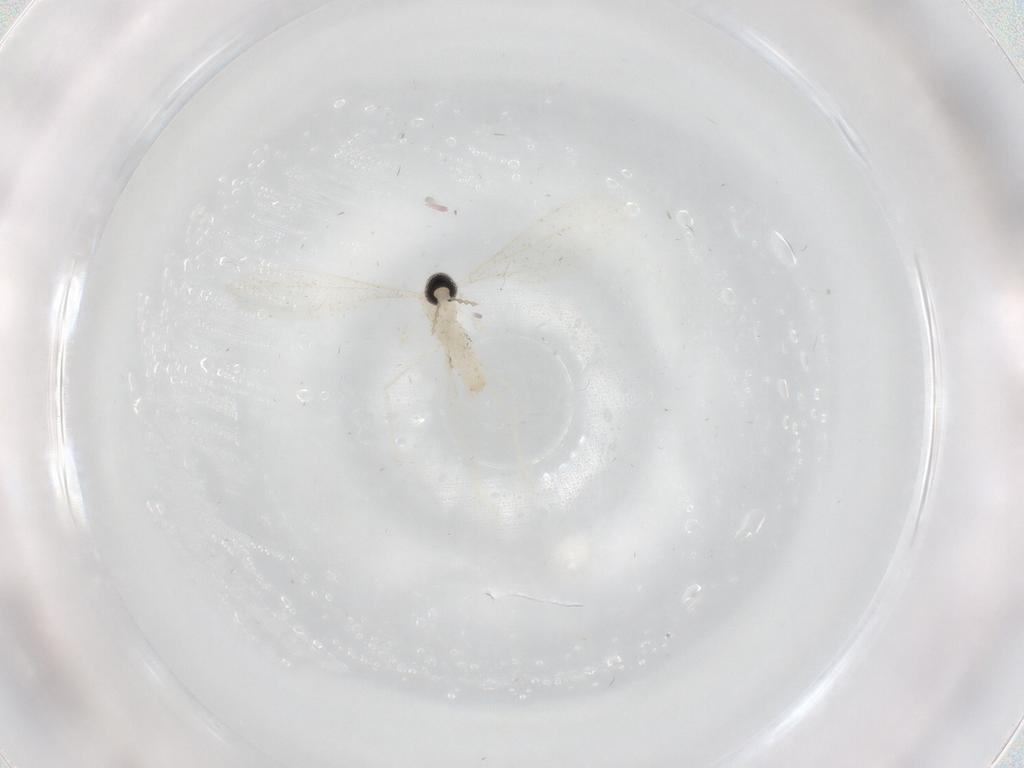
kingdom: Animalia
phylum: Arthropoda
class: Insecta
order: Diptera
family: Cecidomyiidae
